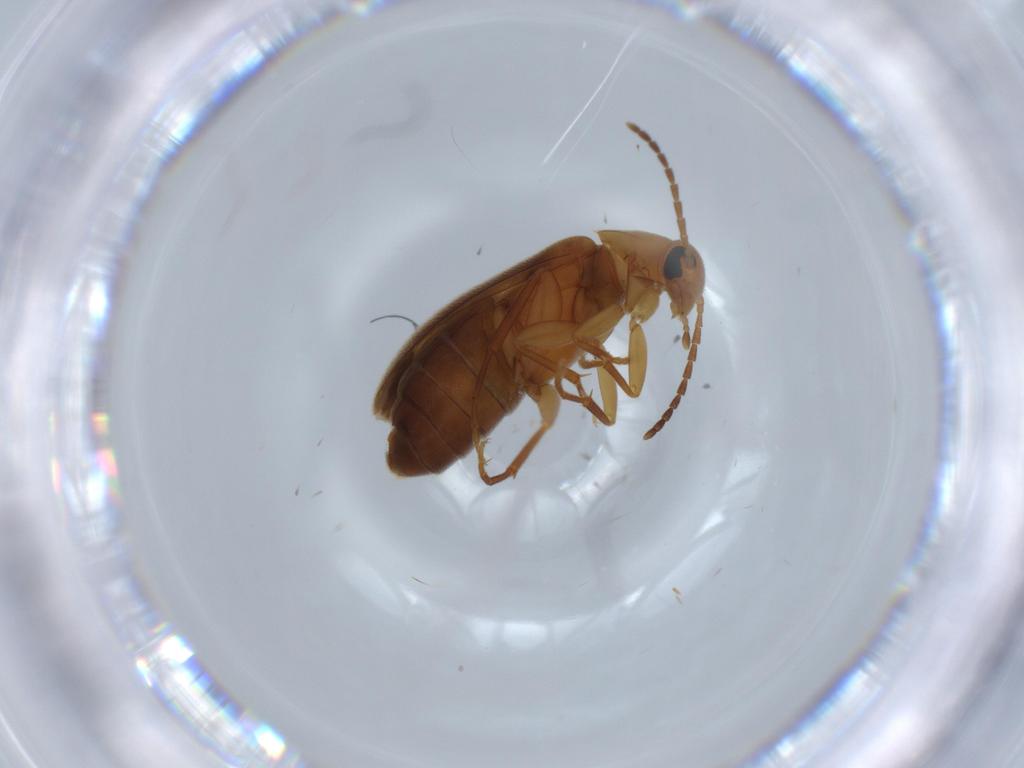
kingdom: Animalia
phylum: Arthropoda
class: Insecta
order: Coleoptera
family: Scraptiidae
